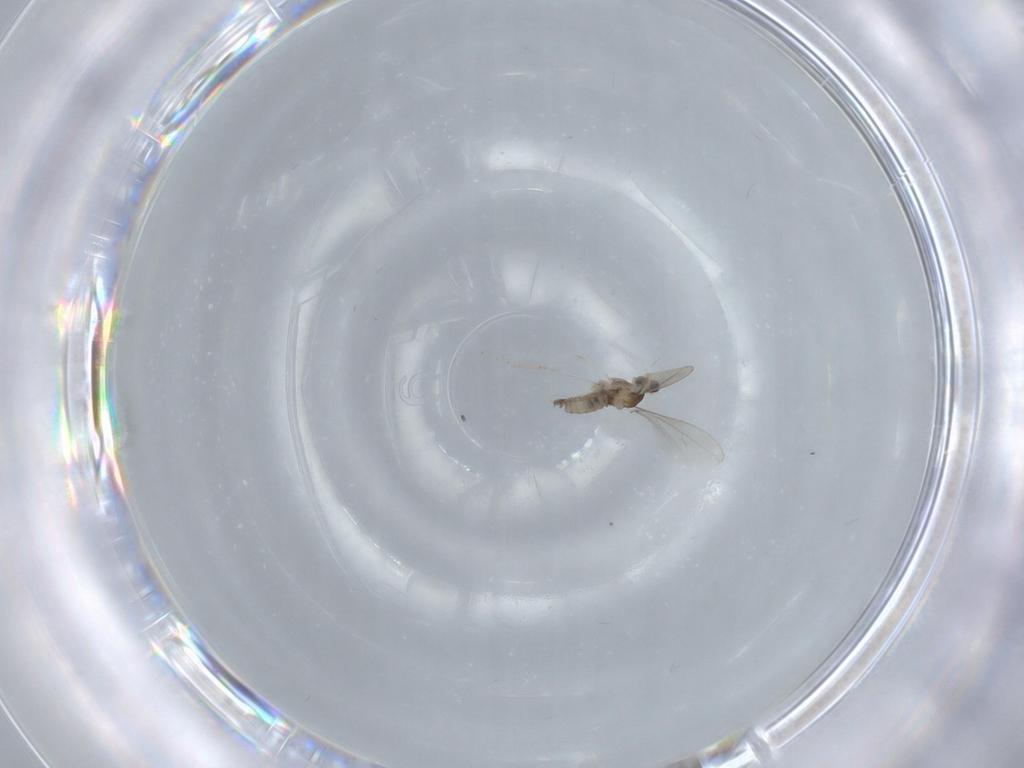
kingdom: Animalia
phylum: Arthropoda
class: Insecta
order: Diptera
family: Cecidomyiidae
